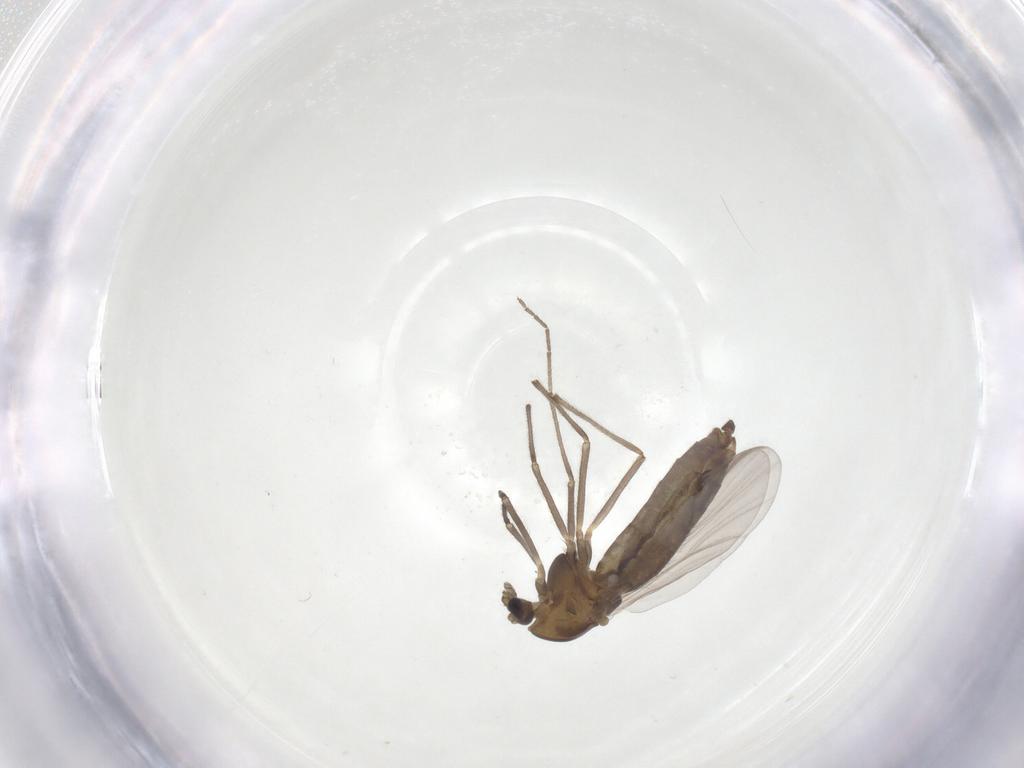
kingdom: Animalia
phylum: Arthropoda
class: Insecta
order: Diptera
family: Chironomidae
